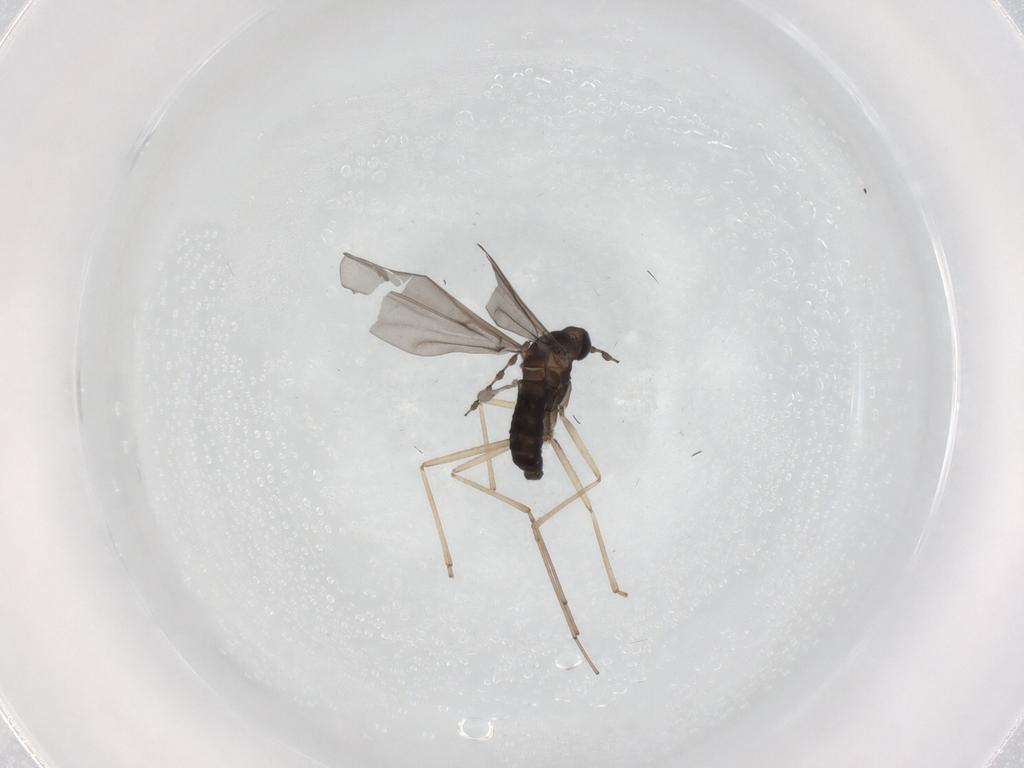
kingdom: Animalia
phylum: Arthropoda
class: Insecta
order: Diptera
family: Cecidomyiidae
